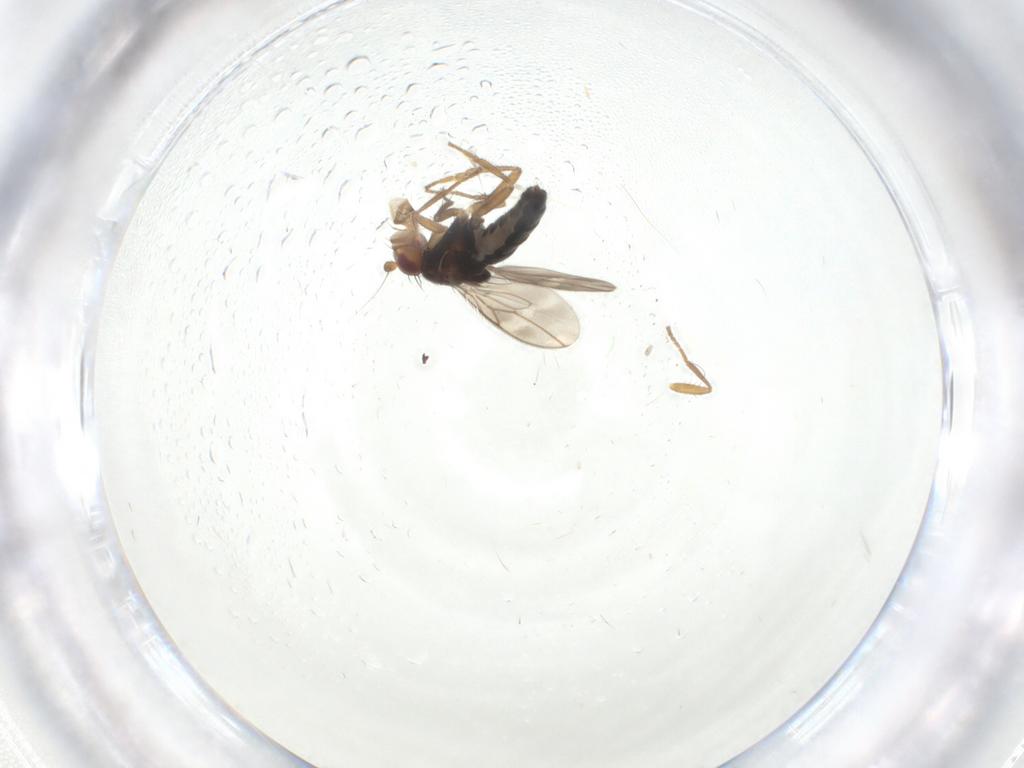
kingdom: Animalia
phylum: Arthropoda
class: Insecta
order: Diptera
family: Sphaeroceridae
